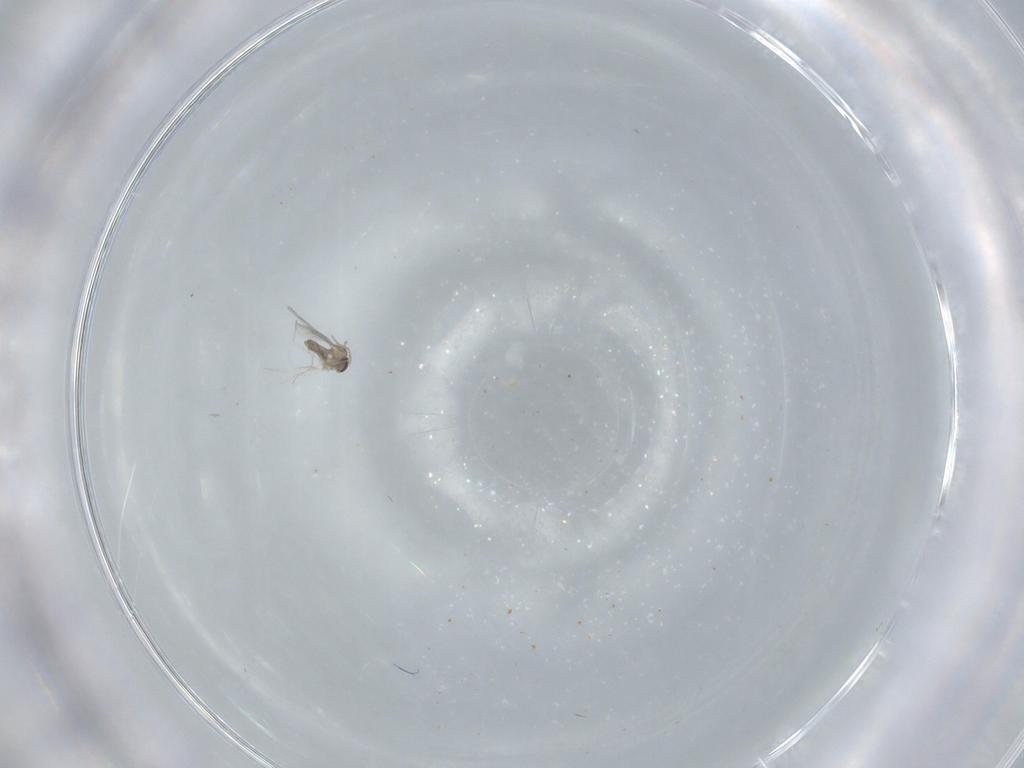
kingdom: Animalia
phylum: Arthropoda
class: Insecta
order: Diptera
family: Cecidomyiidae
